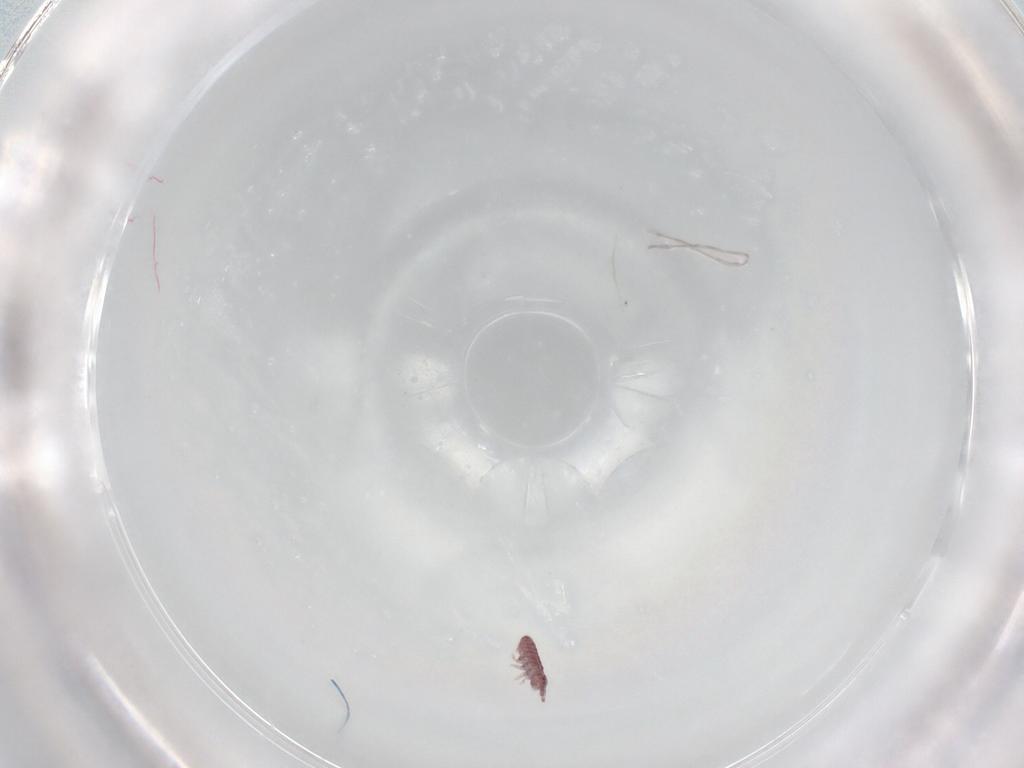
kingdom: Animalia
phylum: Arthropoda
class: Collembola
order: Poduromorpha
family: Hypogastruridae
